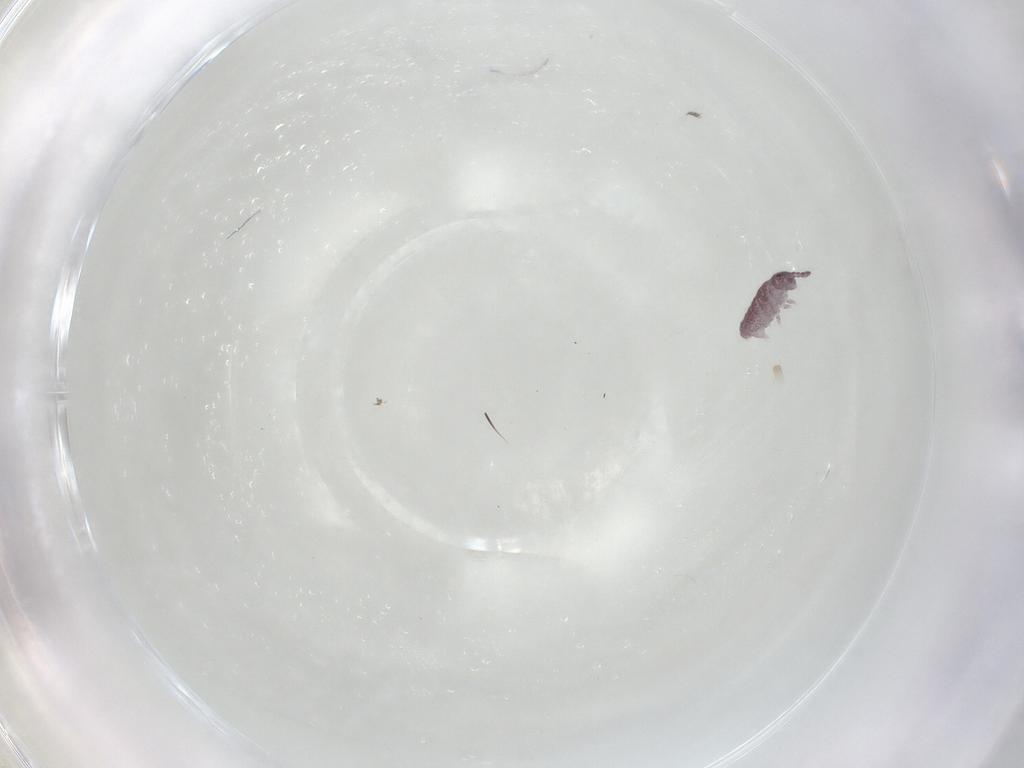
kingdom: Animalia
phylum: Arthropoda
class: Collembola
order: Poduromorpha
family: Hypogastruridae
